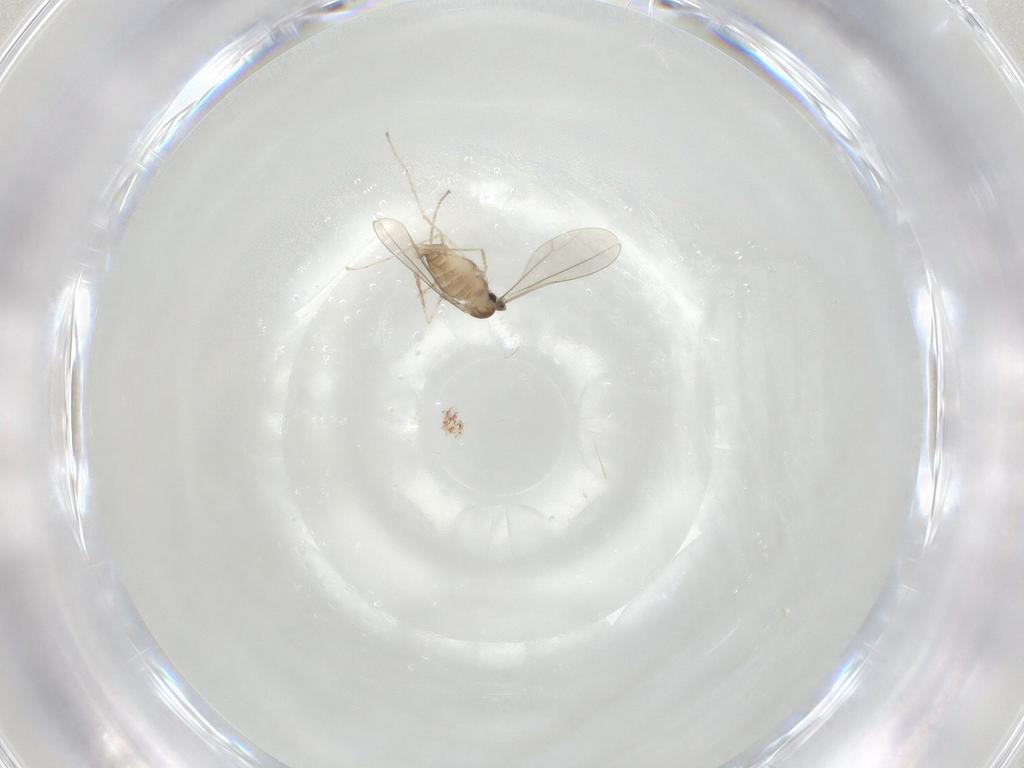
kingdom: Animalia
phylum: Arthropoda
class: Insecta
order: Diptera
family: Cecidomyiidae
